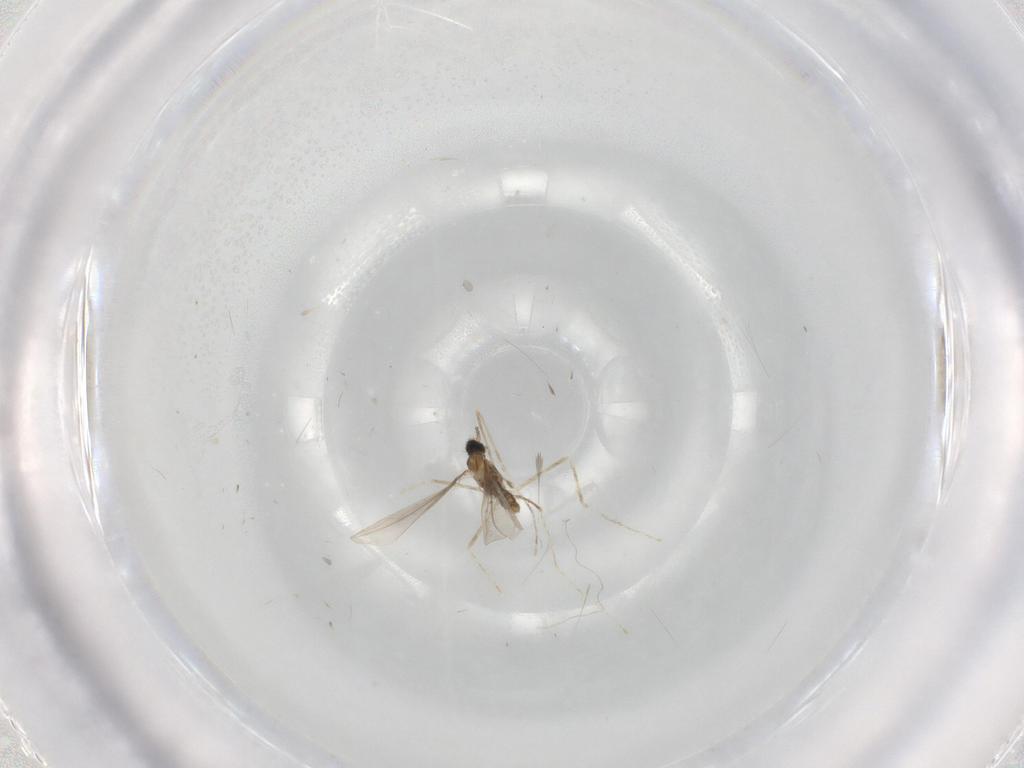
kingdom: Animalia
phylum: Arthropoda
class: Insecta
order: Diptera
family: Cecidomyiidae
